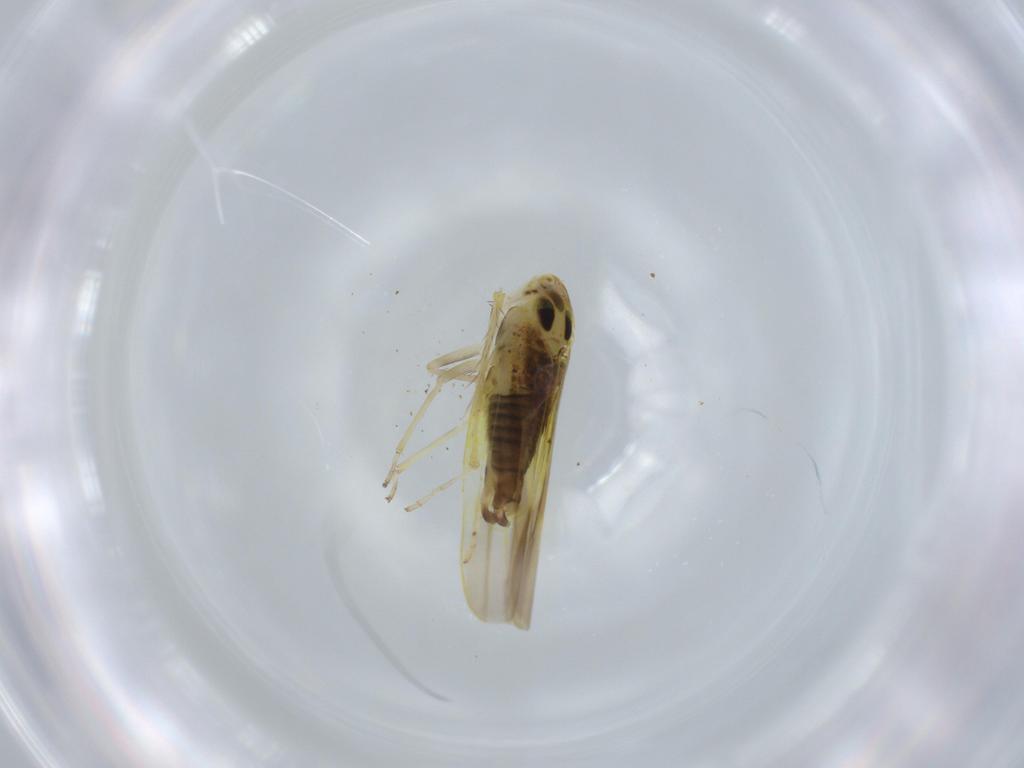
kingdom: Animalia
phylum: Arthropoda
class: Insecta
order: Hemiptera
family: Cicadellidae
